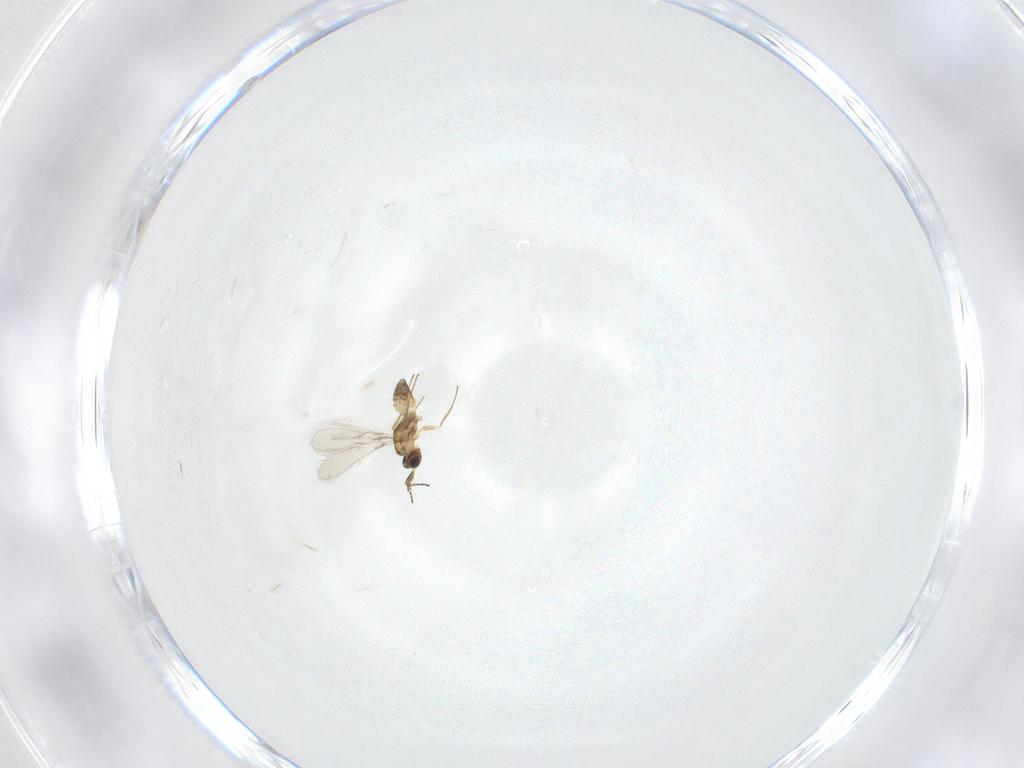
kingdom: Animalia
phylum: Arthropoda
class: Insecta
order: Hymenoptera
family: Mymaridae
